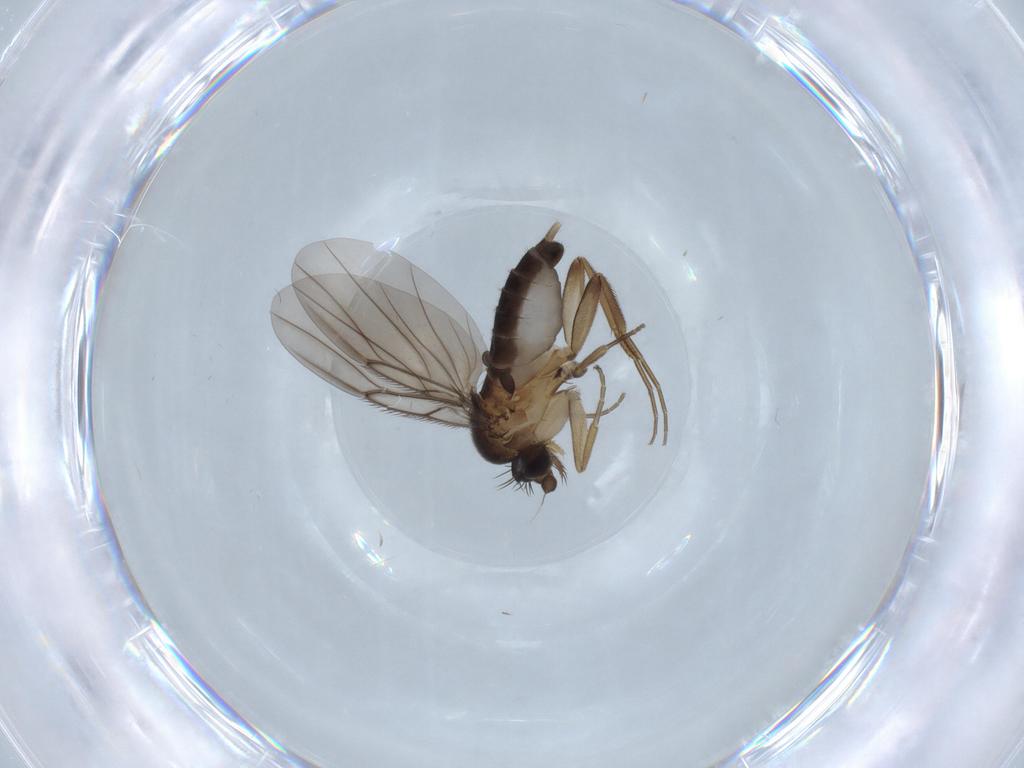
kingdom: Animalia
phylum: Arthropoda
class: Insecta
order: Diptera
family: Phoridae
